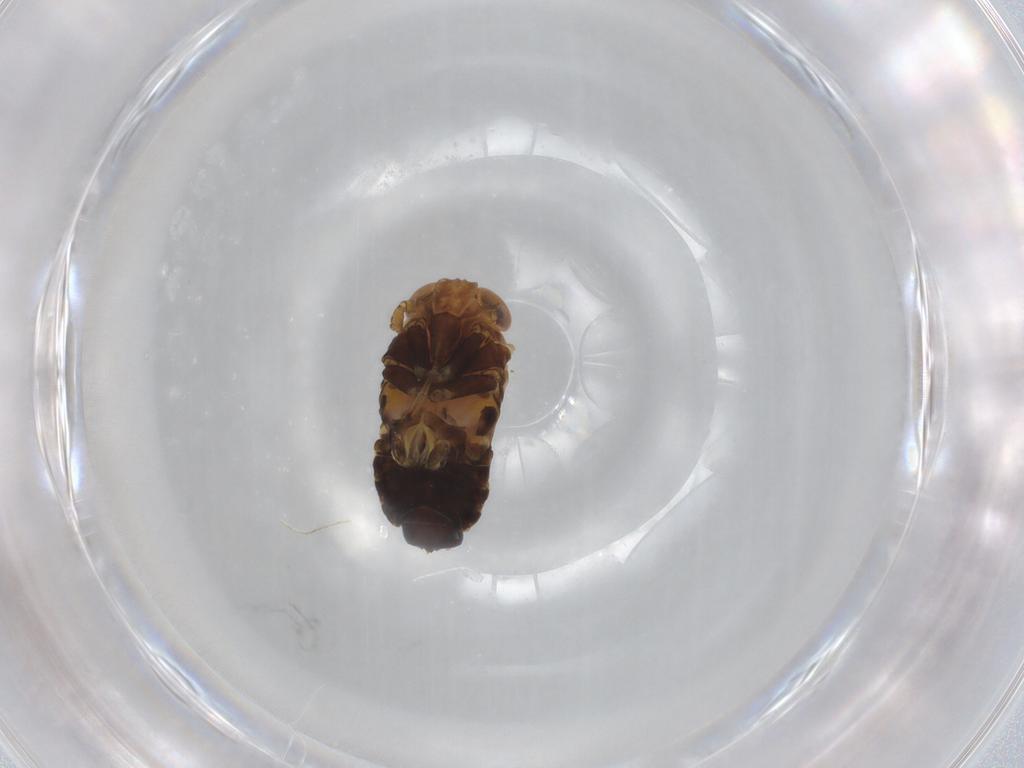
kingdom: Animalia
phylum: Arthropoda
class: Insecta
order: Hemiptera
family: Delphacidae
